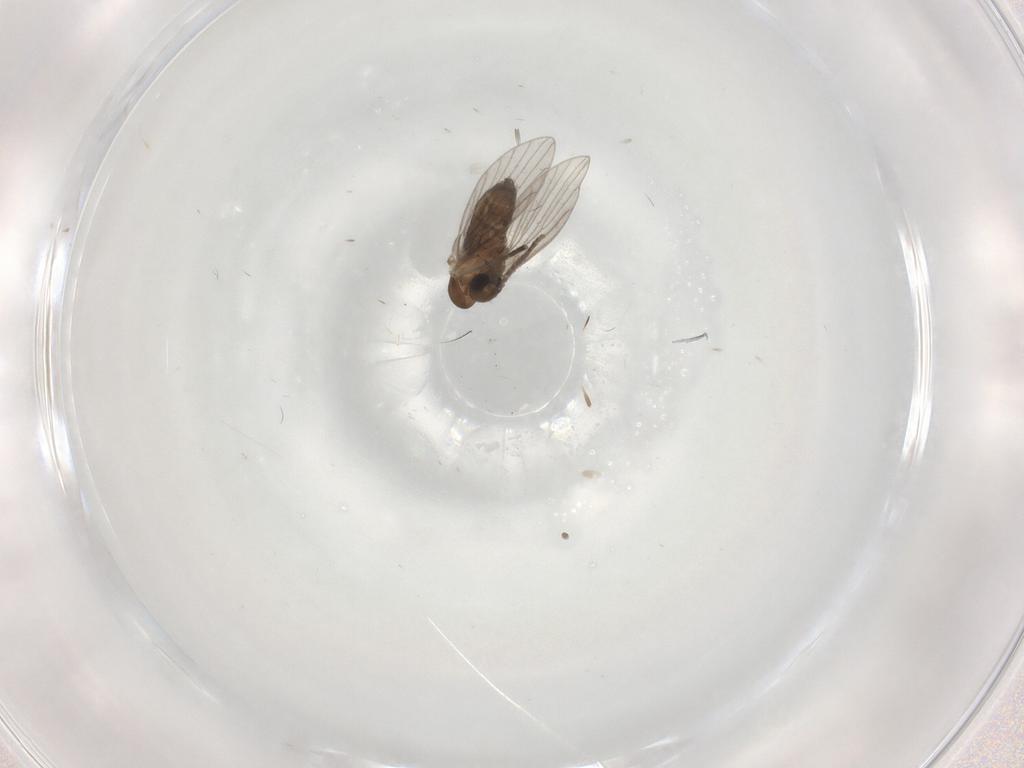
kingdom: Animalia
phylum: Arthropoda
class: Insecta
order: Diptera
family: Psychodidae
